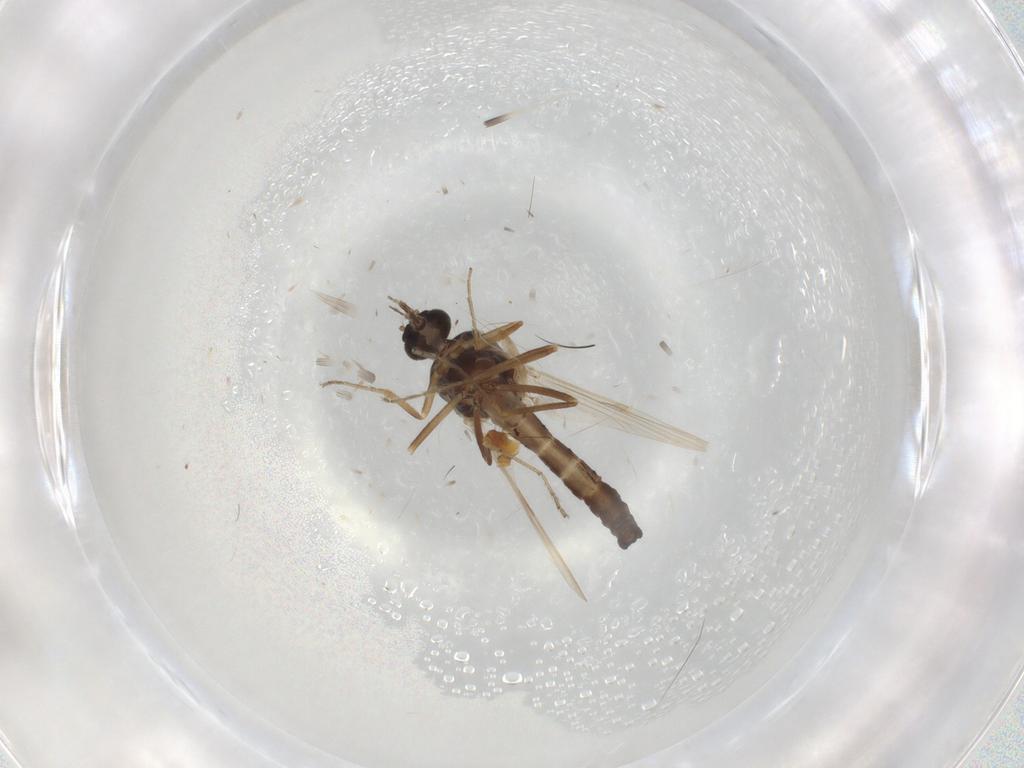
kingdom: Animalia
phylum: Arthropoda
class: Insecta
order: Diptera
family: Ceratopogonidae
